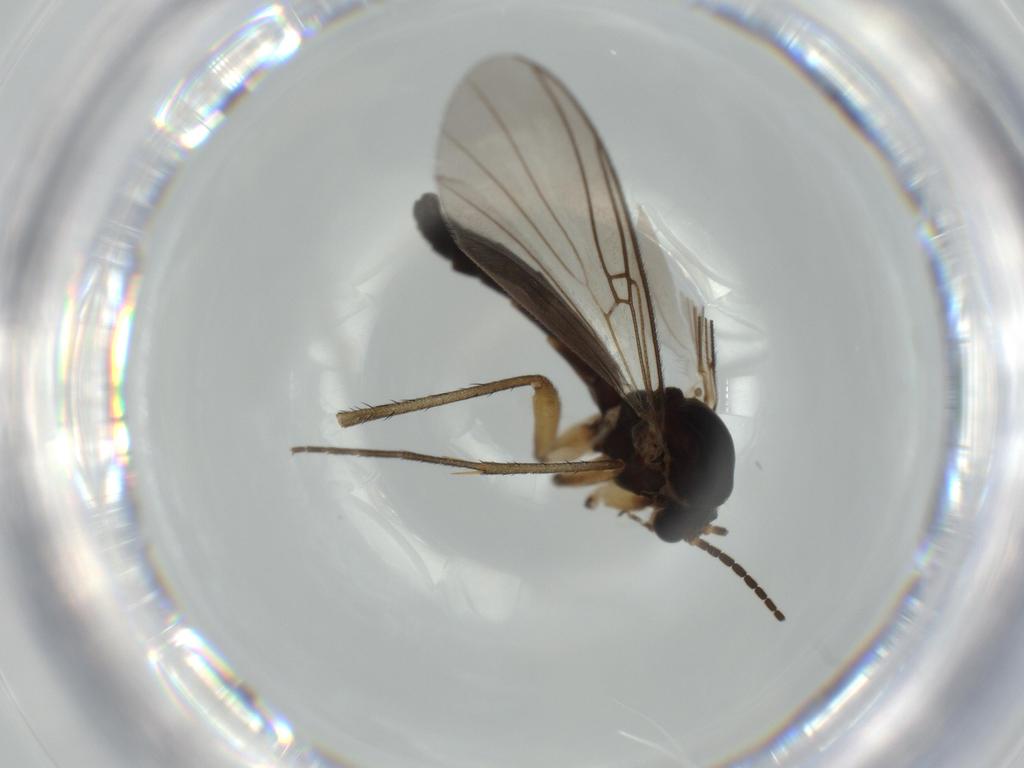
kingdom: Animalia
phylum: Arthropoda
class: Insecta
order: Diptera
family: Mycetophilidae
